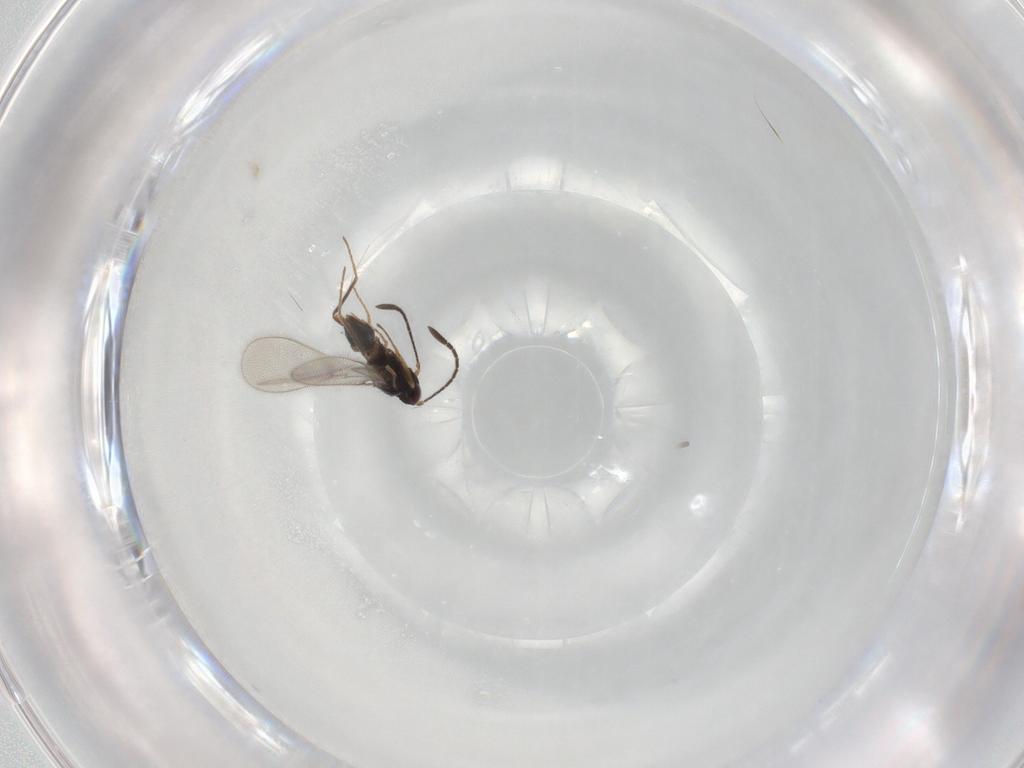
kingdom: Animalia
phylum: Arthropoda
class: Insecta
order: Hymenoptera
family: Mymaridae
